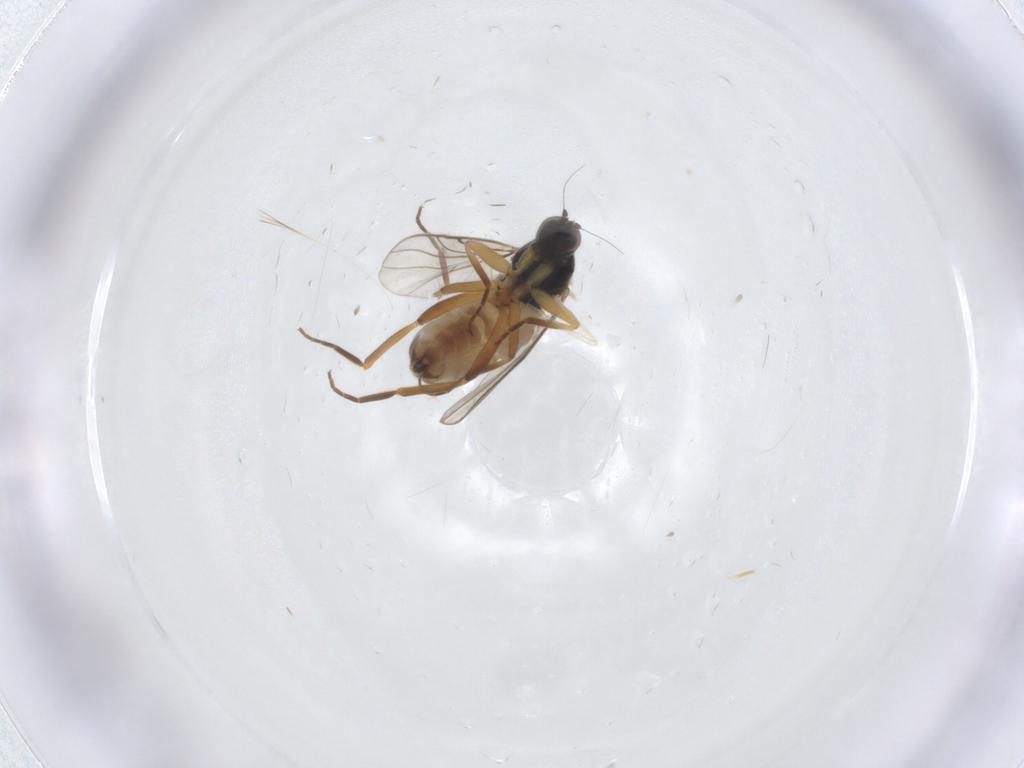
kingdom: Animalia
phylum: Arthropoda
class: Insecta
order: Diptera
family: Hybotidae
